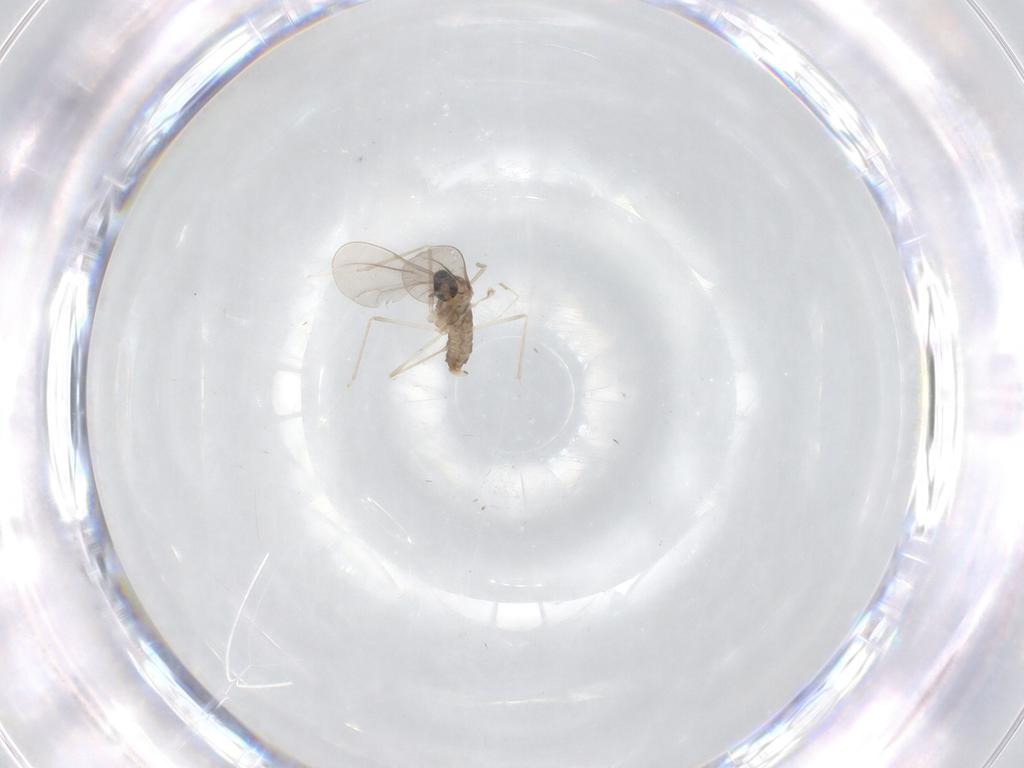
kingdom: Animalia
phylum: Arthropoda
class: Insecta
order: Diptera
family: Cecidomyiidae
